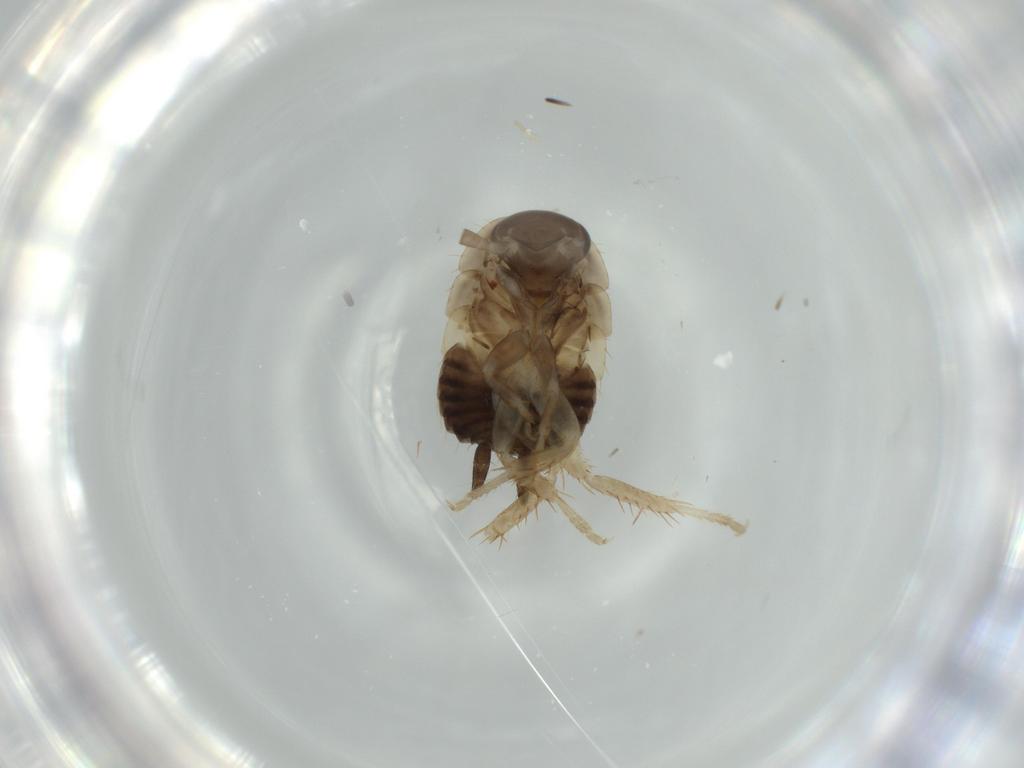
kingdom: Animalia
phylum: Arthropoda
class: Insecta
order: Blattodea
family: Ectobiidae
